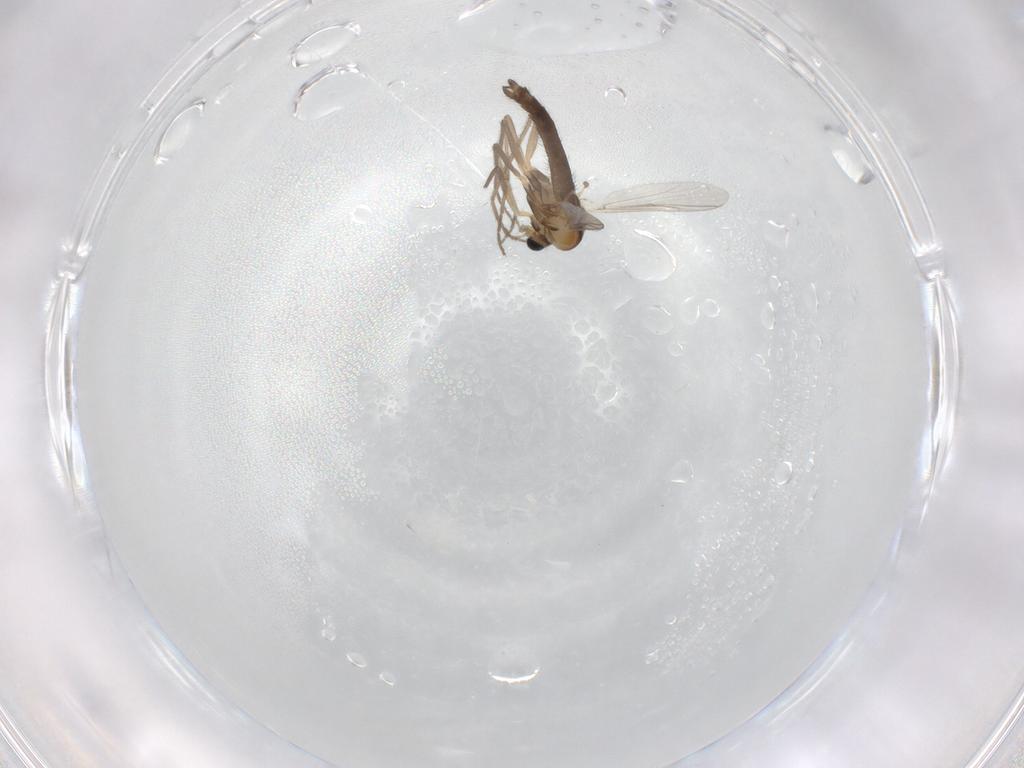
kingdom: Animalia
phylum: Arthropoda
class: Insecta
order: Diptera
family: Chironomidae
